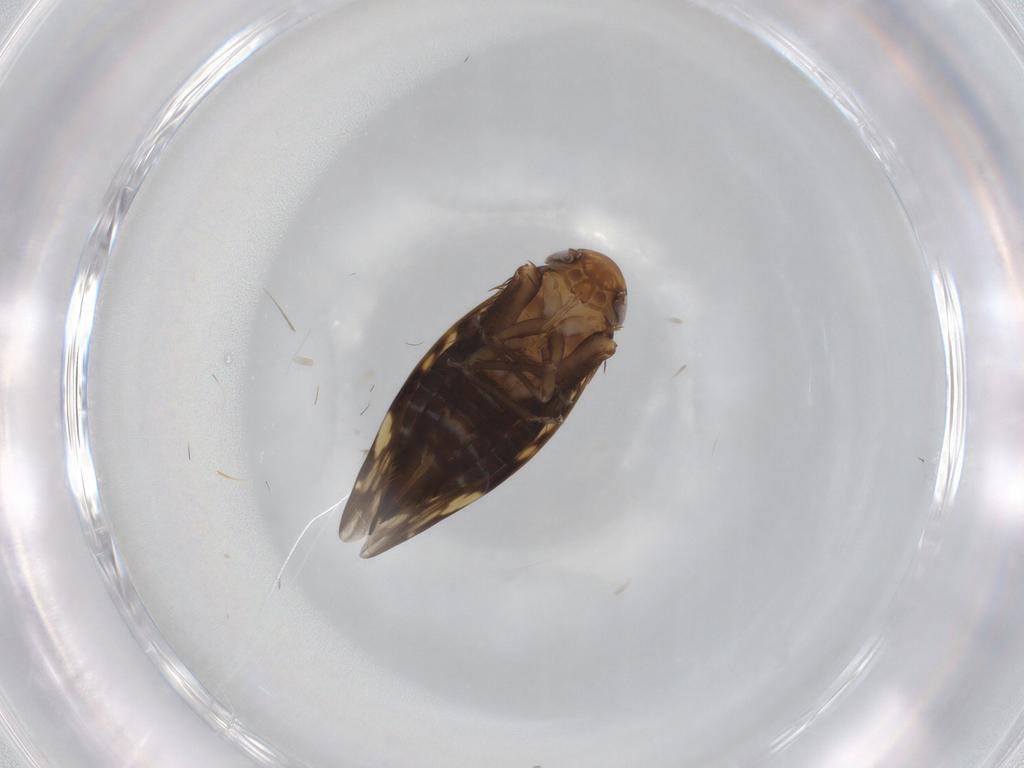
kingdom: Animalia
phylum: Arthropoda
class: Insecta
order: Hemiptera
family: Cicadellidae
